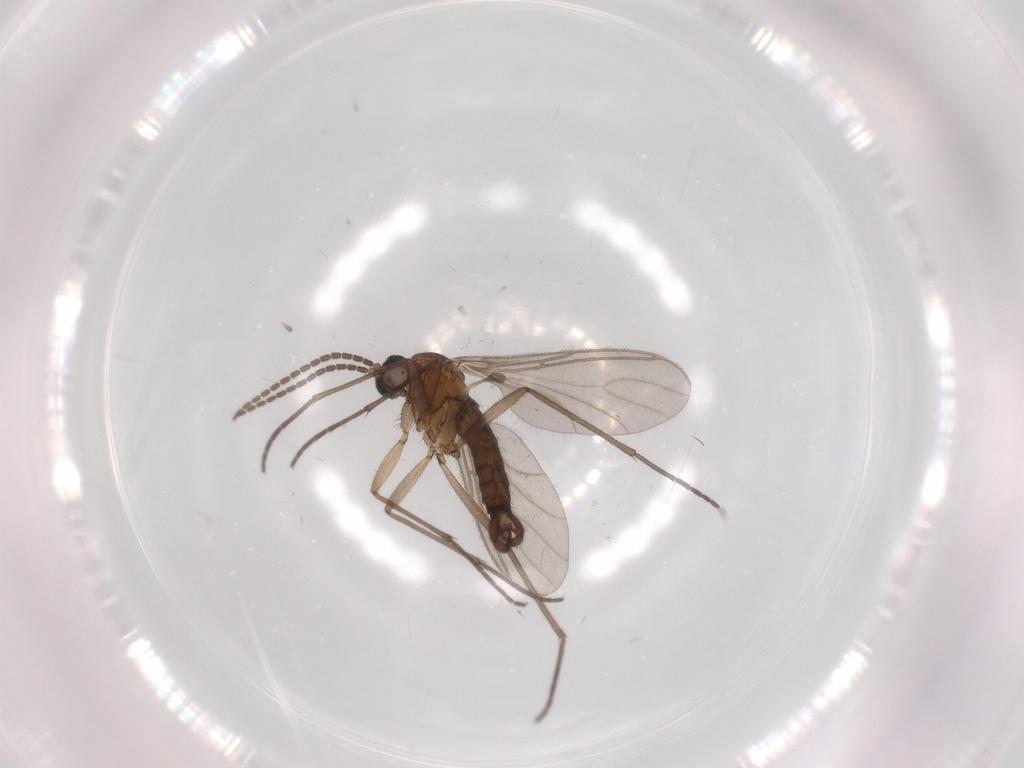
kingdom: Animalia
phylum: Arthropoda
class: Insecta
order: Diptera
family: Sciaridae
